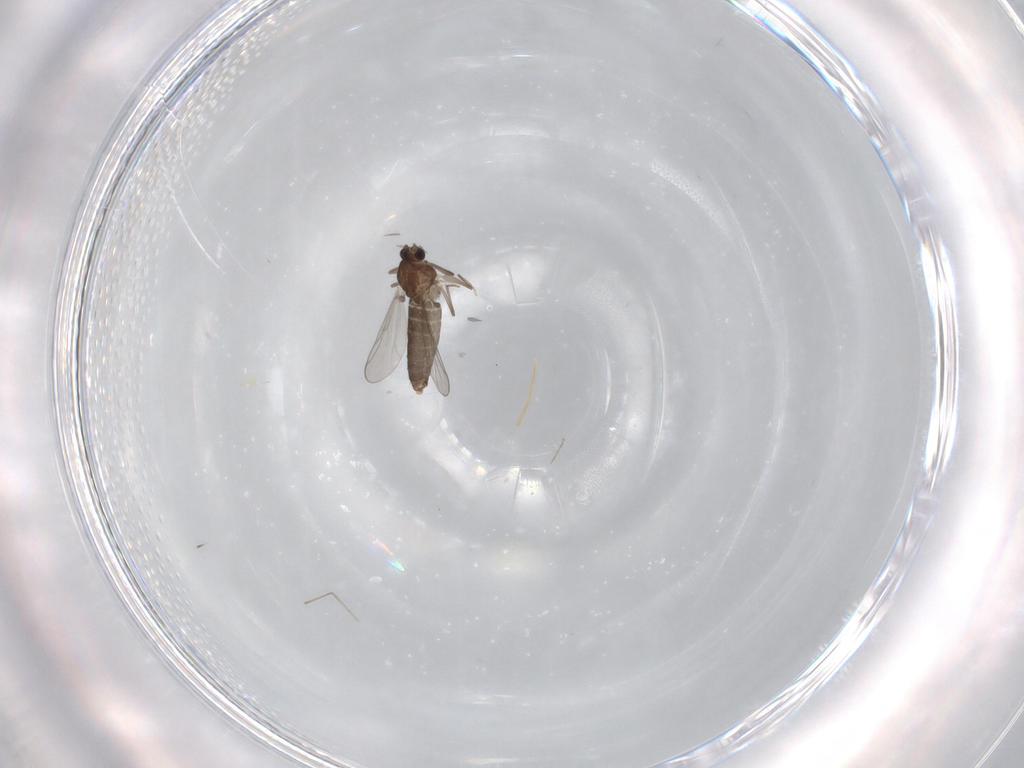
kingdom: Animalia
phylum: Arthropoda
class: Insecta
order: Diptera
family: Chironomidae
